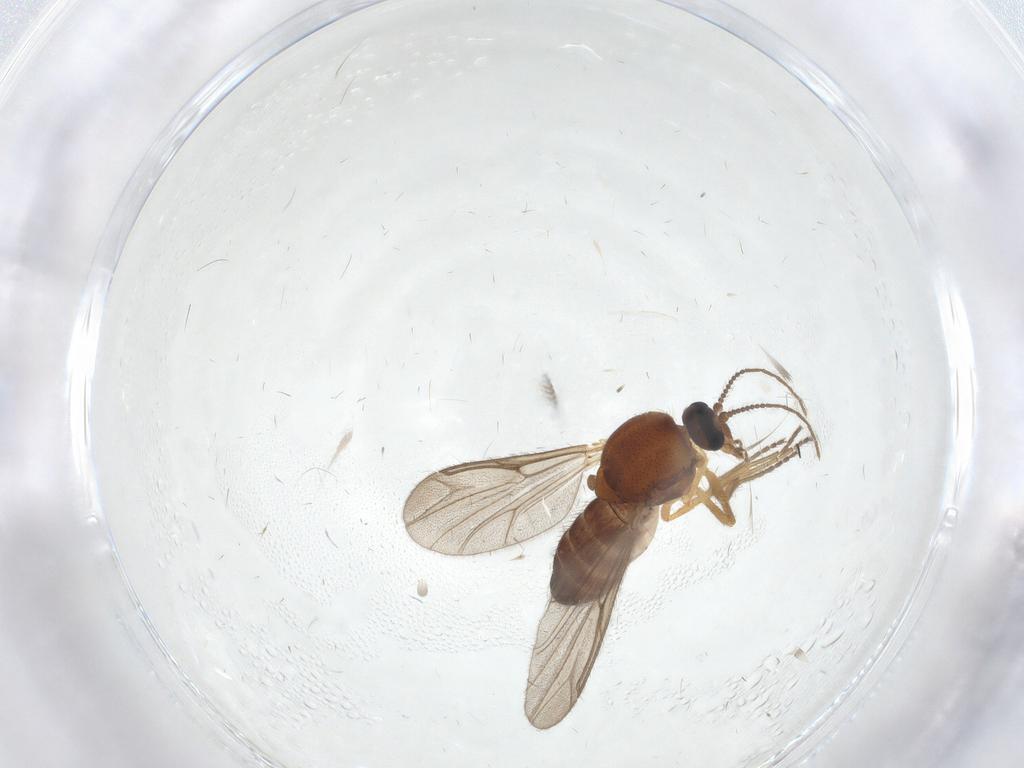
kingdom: Animalia
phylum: Arthropoda
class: Insecta
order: Diptera
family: Ceratopogonidae
